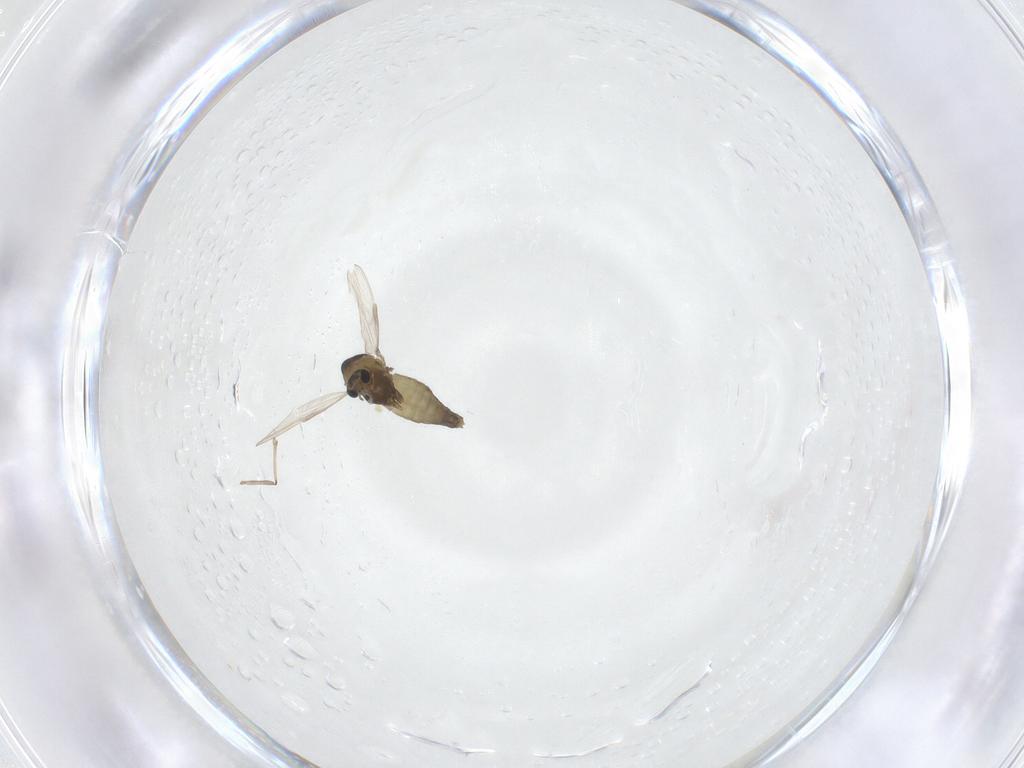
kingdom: Animalia
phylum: Arthropoda
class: Insecta
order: Diptera
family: Chironomidae
